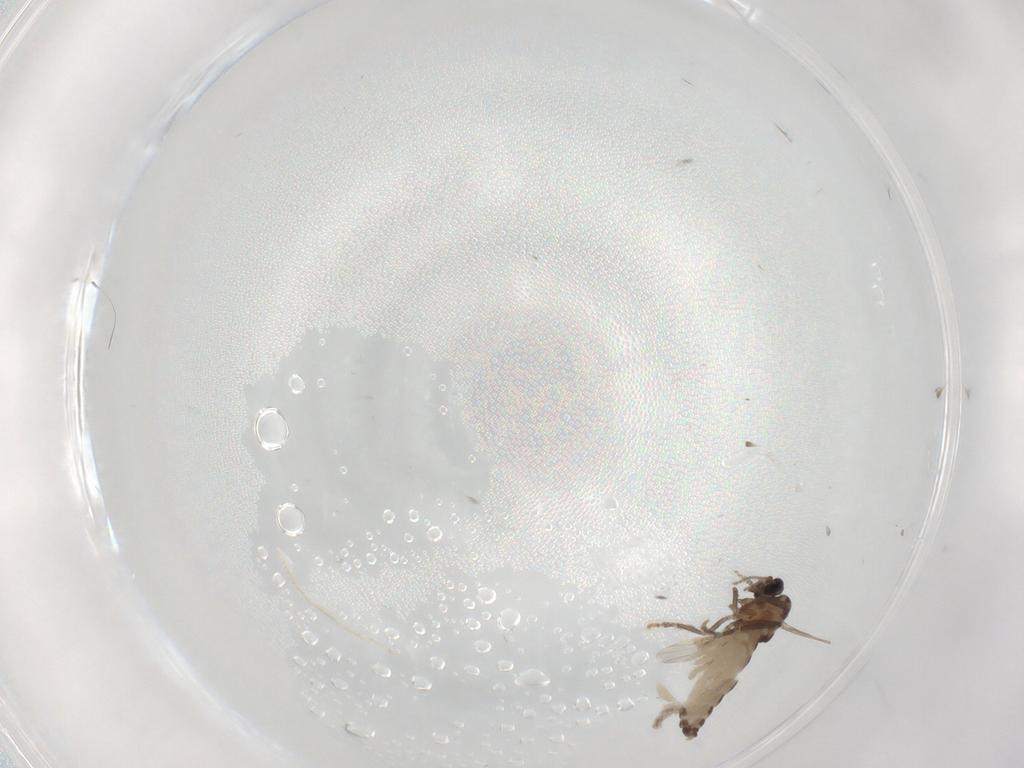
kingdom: Animalia
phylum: Arthropoda
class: Insecta
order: Diptera
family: Ceratopogonidae
